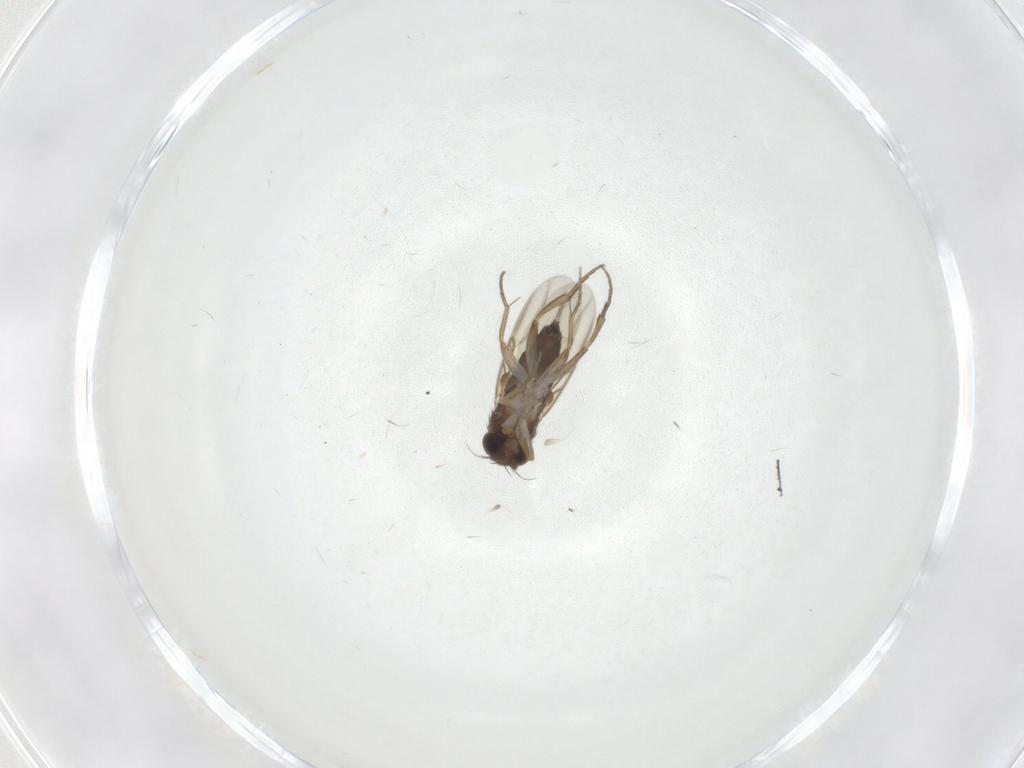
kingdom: Animalia
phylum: Arthropoda
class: Insecta
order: Diptera
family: Phoridae
